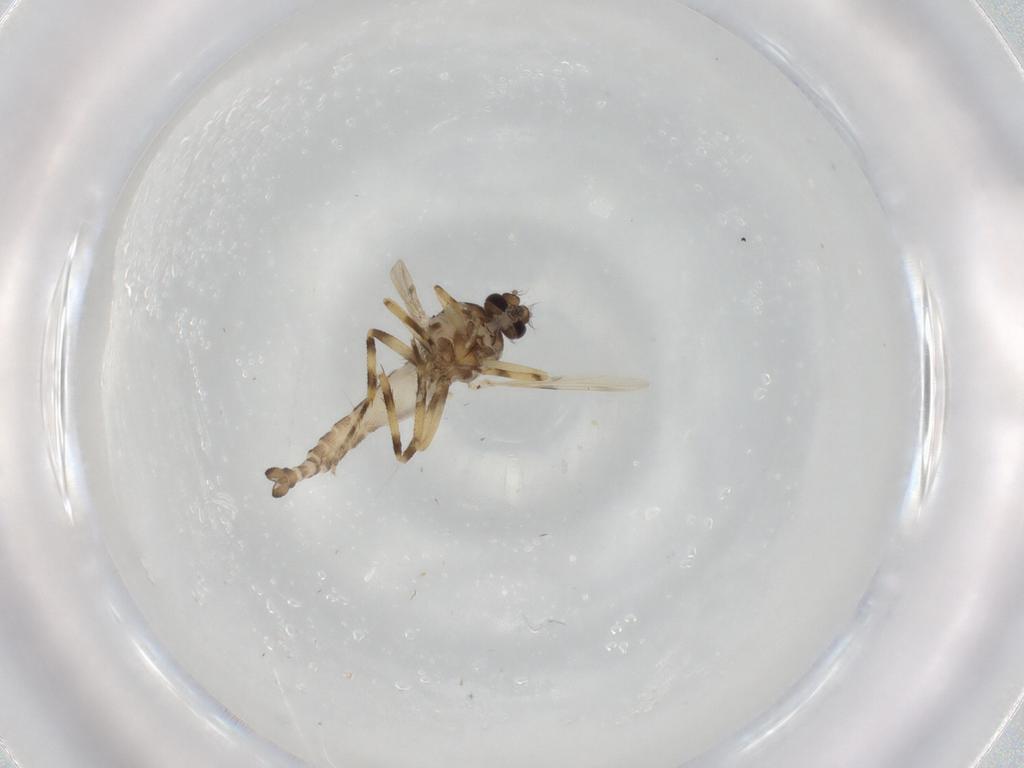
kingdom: Animalia
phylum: Arthropoda
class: Insecta
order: Diptera
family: Ceratopogonidae
